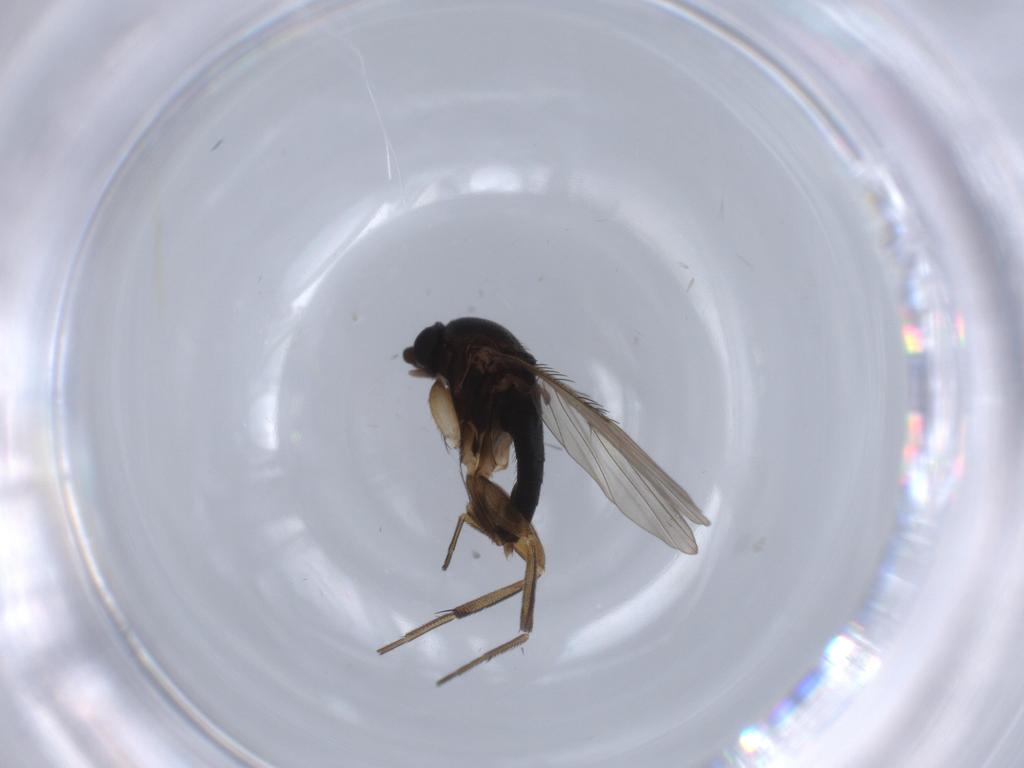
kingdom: Animalia
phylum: Arthropoda
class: Insecta
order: Diptera
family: Phoridae
